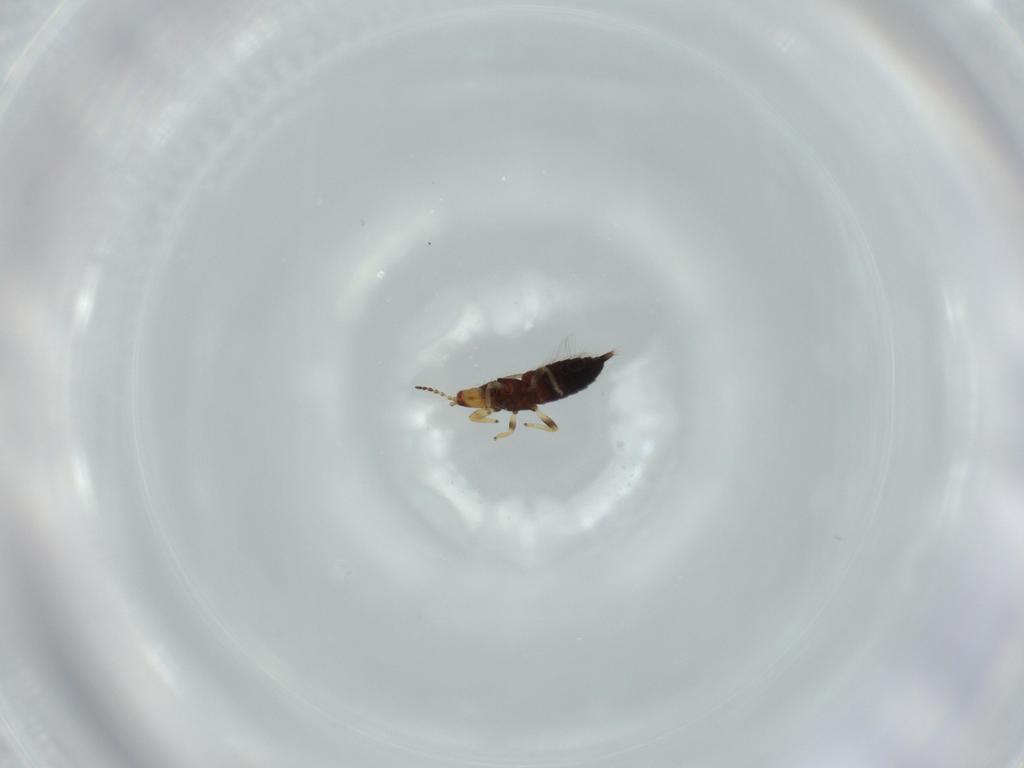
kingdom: Animalia
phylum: Arthropoda
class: Insecta
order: Thysanoptera
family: Phlaeothripidae
